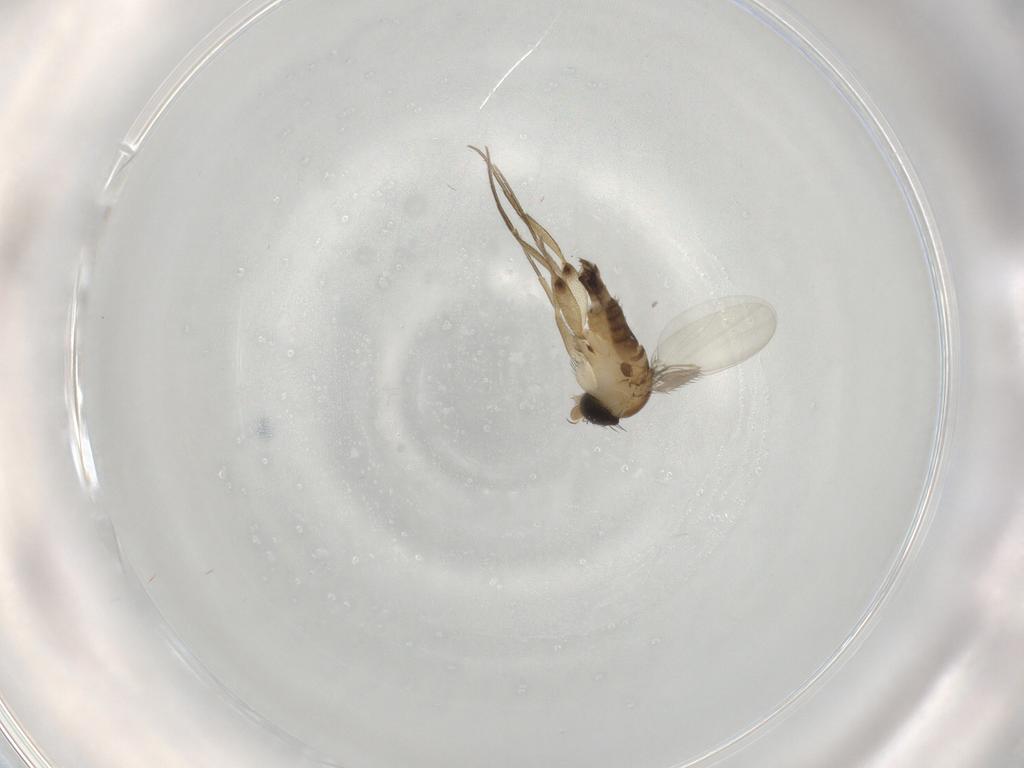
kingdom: Animalia
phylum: Arthropoda
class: Insecta
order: Diptera
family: Phoridae
